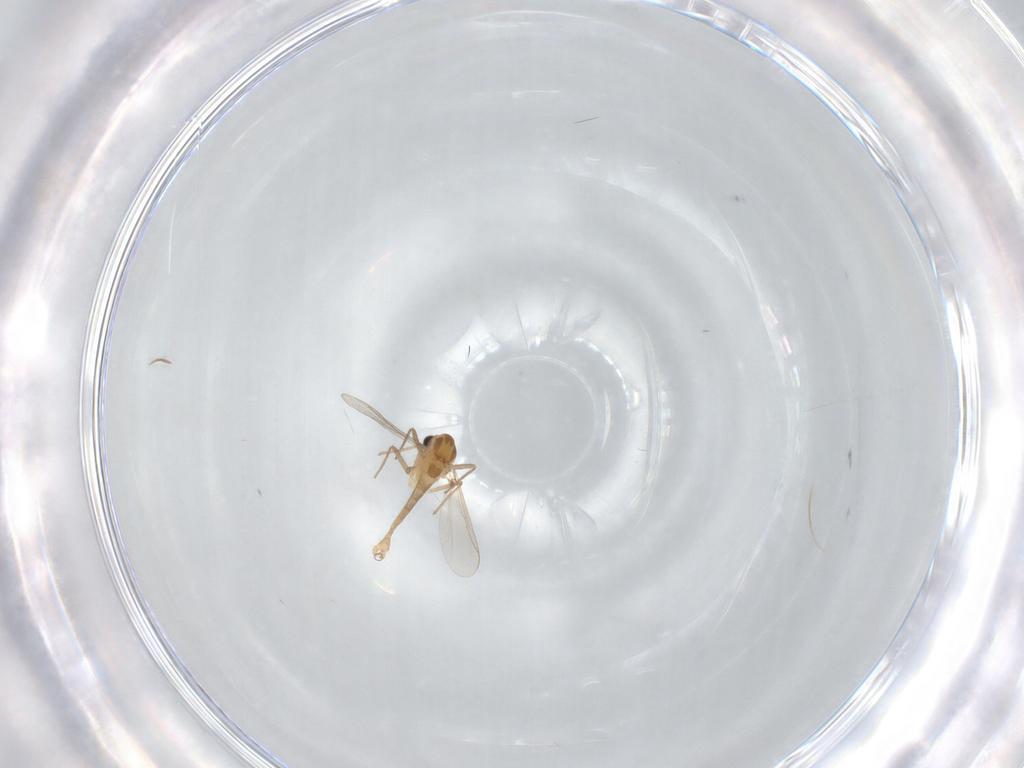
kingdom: Animalia
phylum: Arthropoda
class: Insecta
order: Diptera
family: Chironomidae
